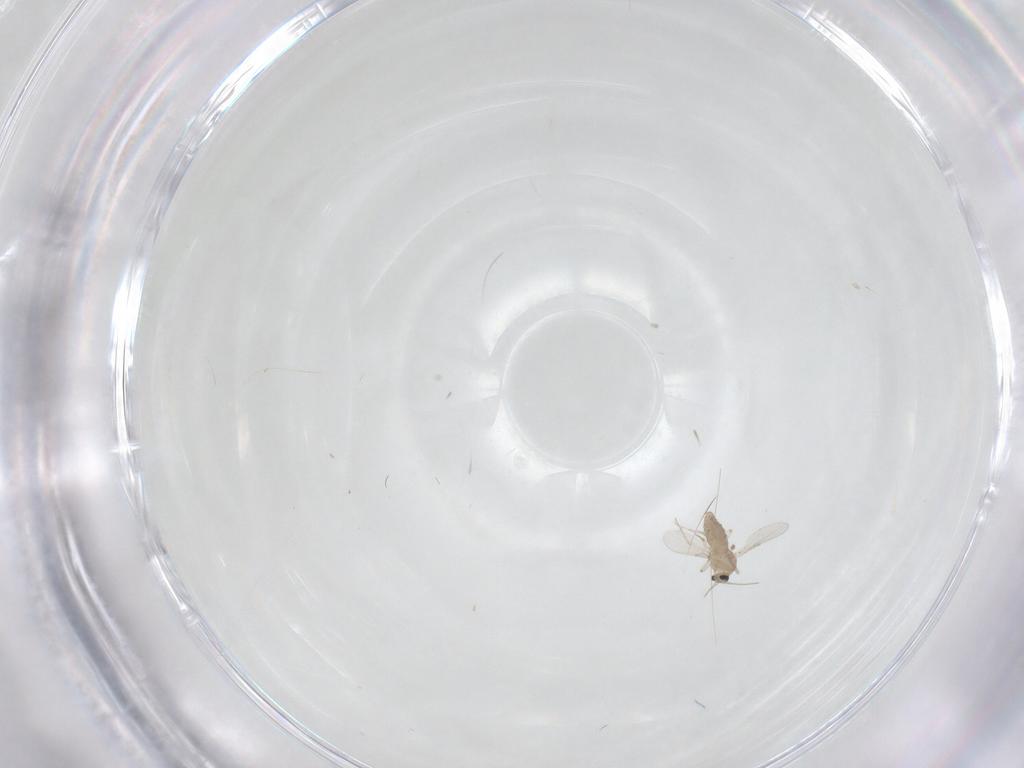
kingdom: Animalia
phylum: Arthropoda
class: Insecta
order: Diptera
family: Ceratopogonidae
